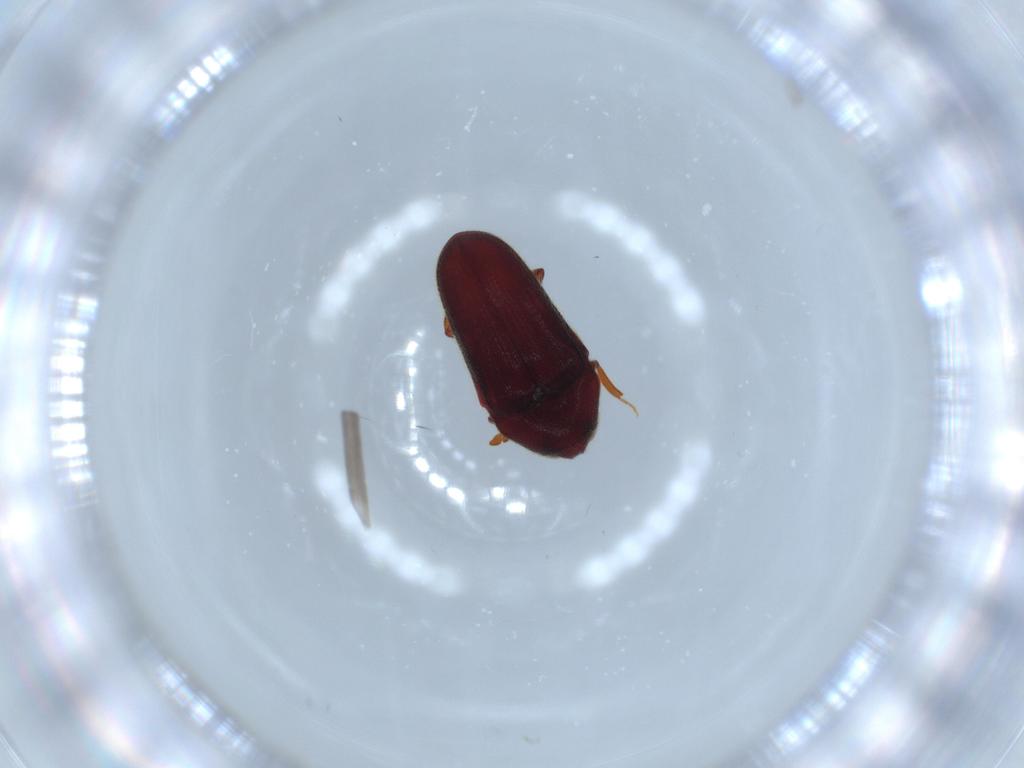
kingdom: Animalia
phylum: Arthropoda
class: Insecta
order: Coleoptera
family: Throscidae
